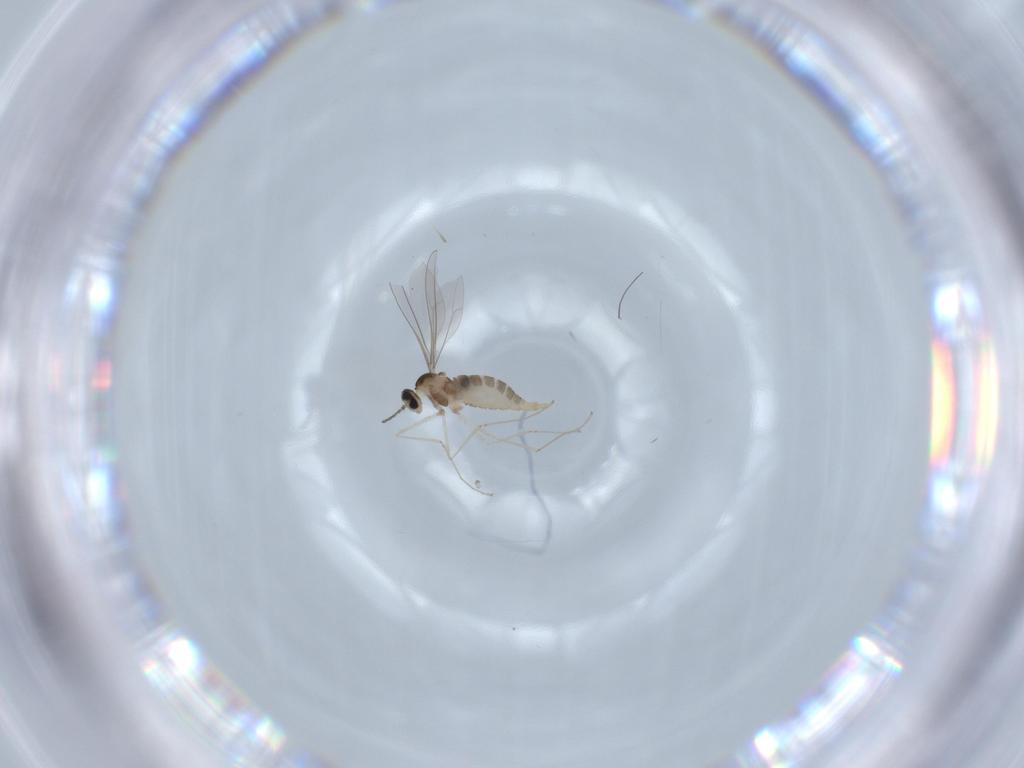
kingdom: Animalia
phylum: Arthropoda
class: Insecta
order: Diptera
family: Cecidomyiidae
